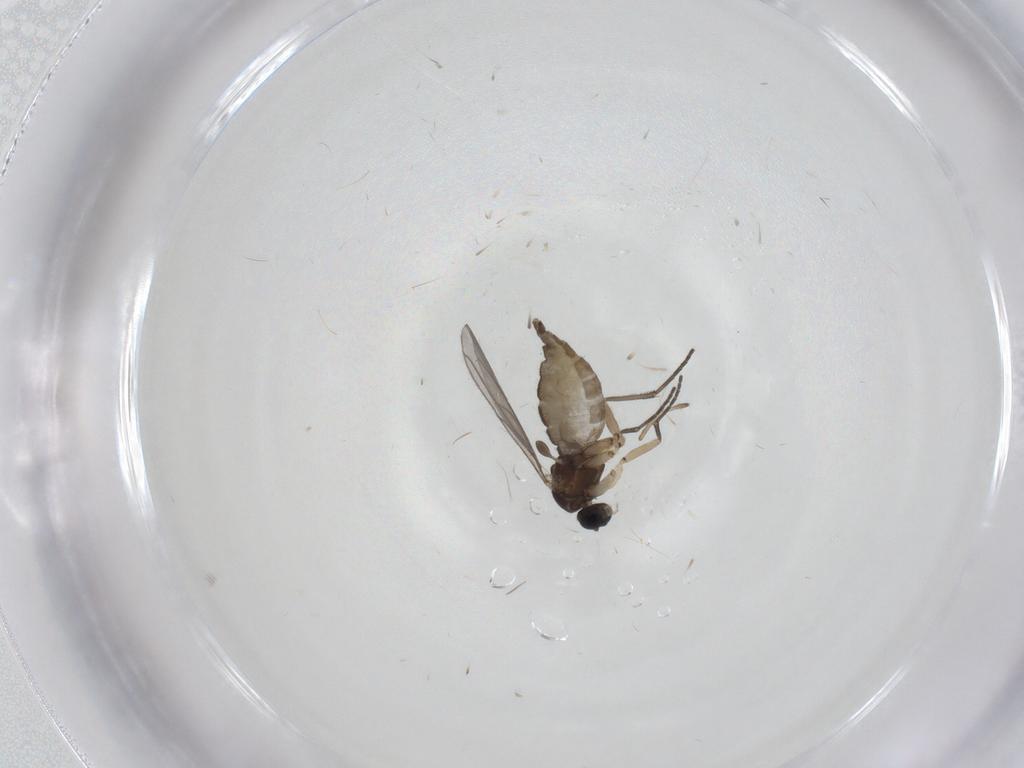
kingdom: Animalia
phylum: Arthropoda
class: Insecta
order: Diptera
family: Sciaridae
